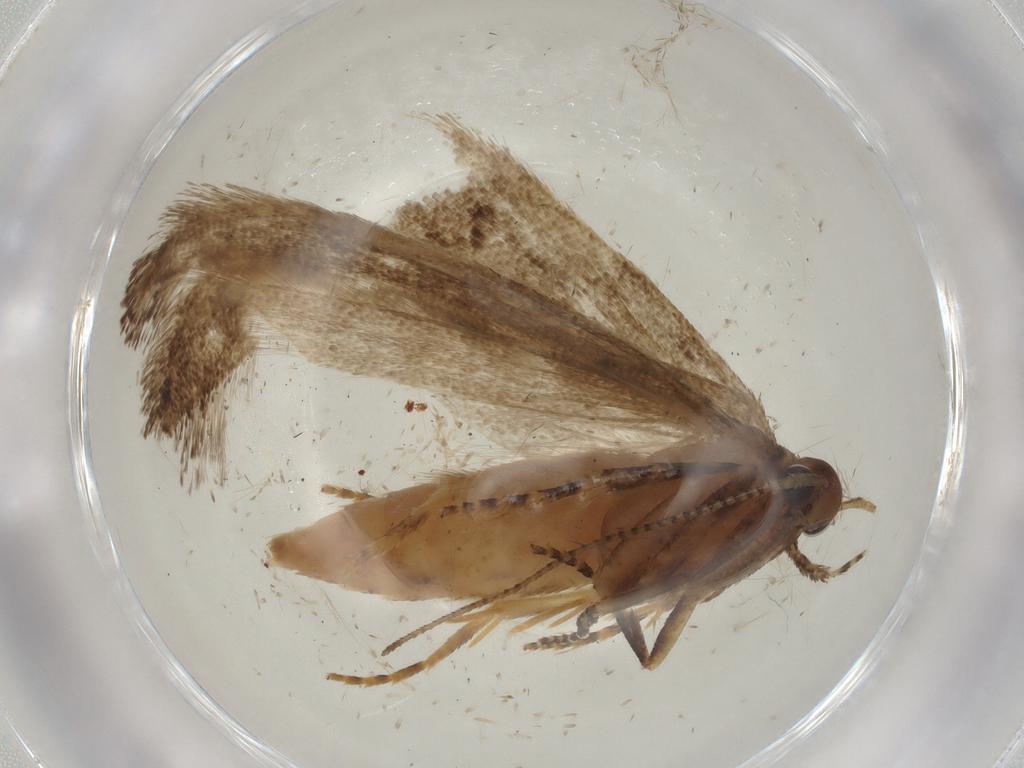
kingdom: Animalia
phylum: Arthropoda
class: Insecta
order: Lepidoptera
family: Gelechiidae
